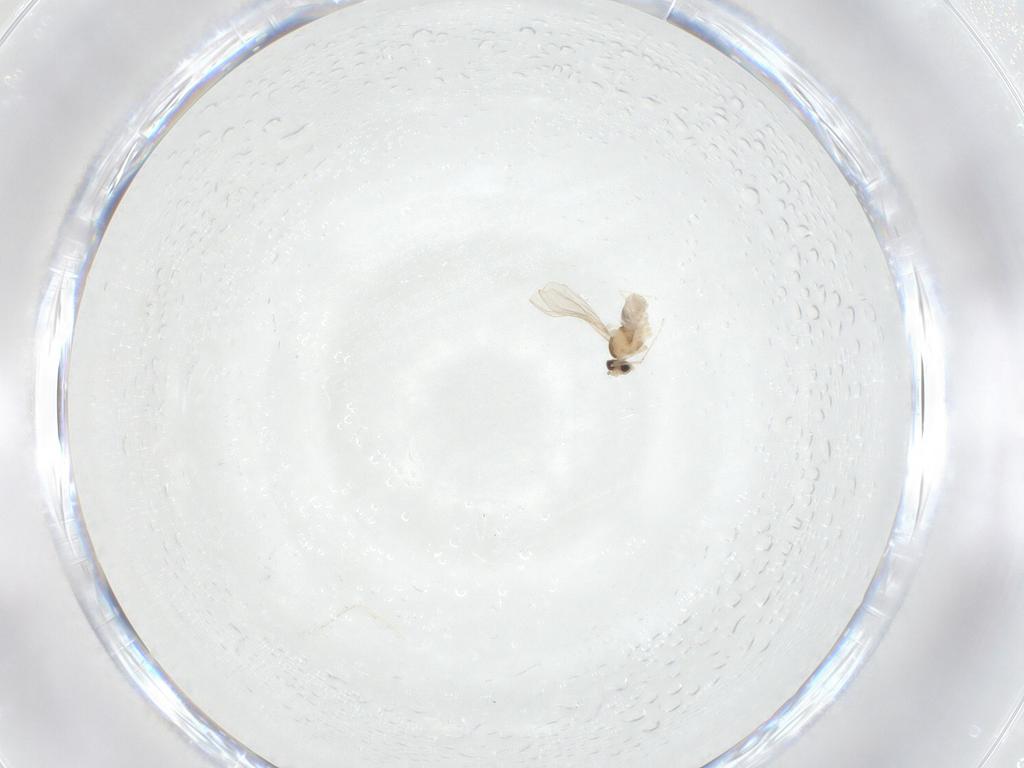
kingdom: Animalia
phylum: Arthropoda
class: Insecta
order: Diptera
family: Cecidomyiidae
